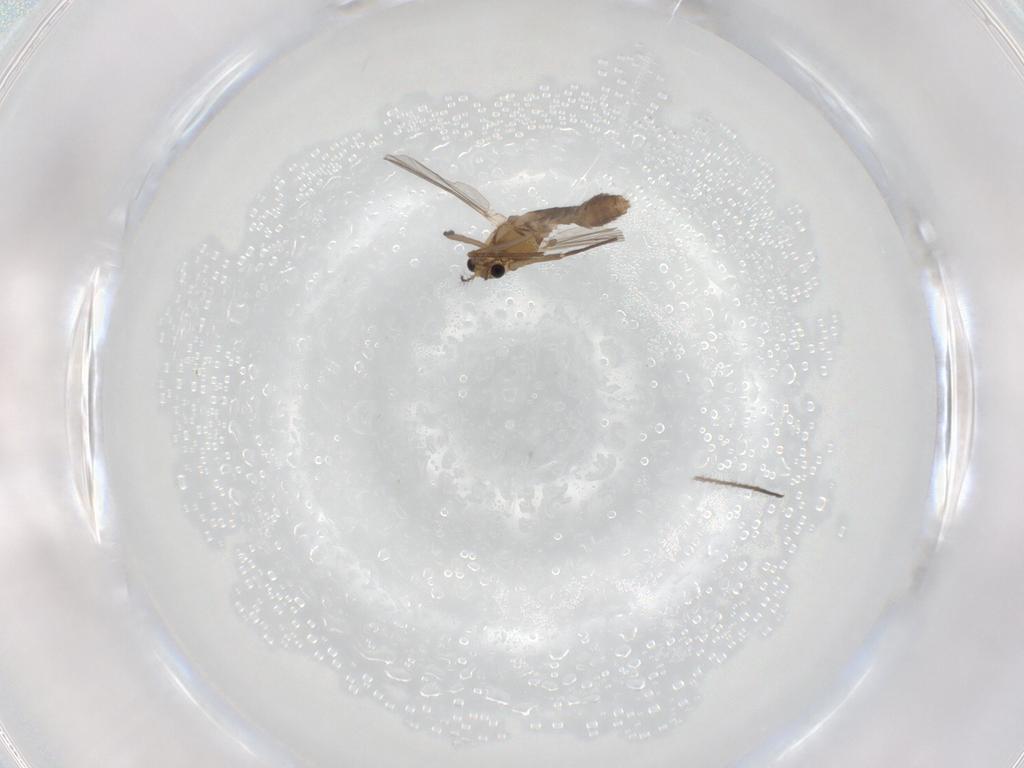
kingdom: Animalia
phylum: Arthropoda
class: Insecta
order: Diptera
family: Chironomidae
